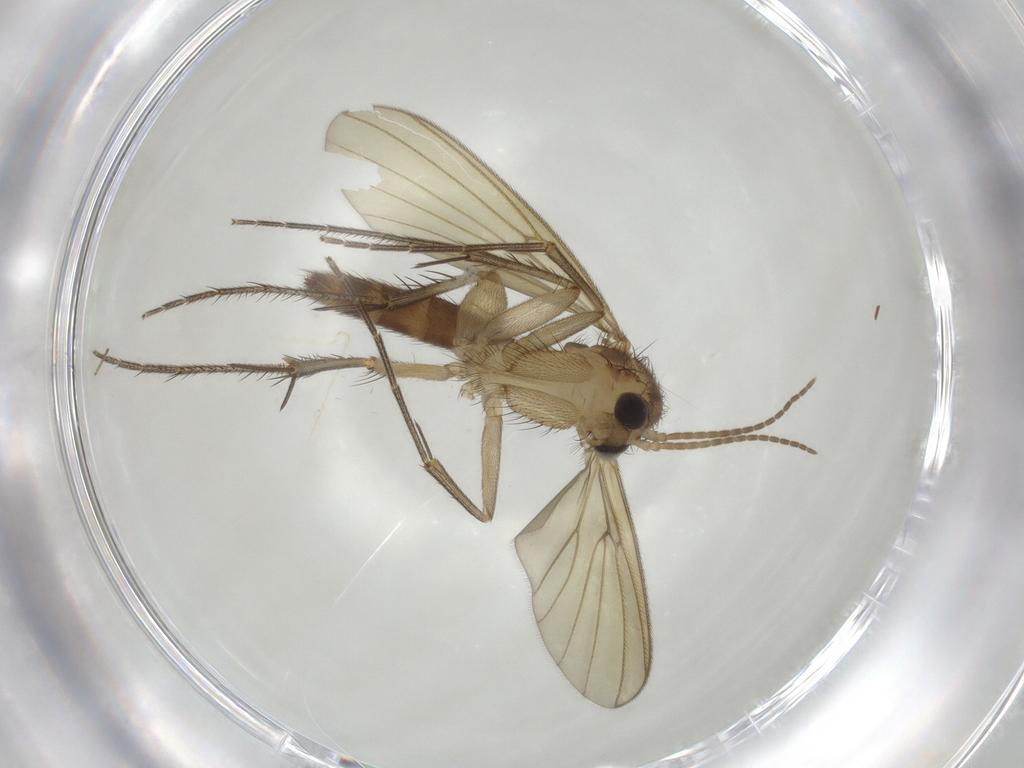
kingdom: Animalia
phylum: Arthropoda
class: Insecta
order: Diptera
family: Mycetophilidae
